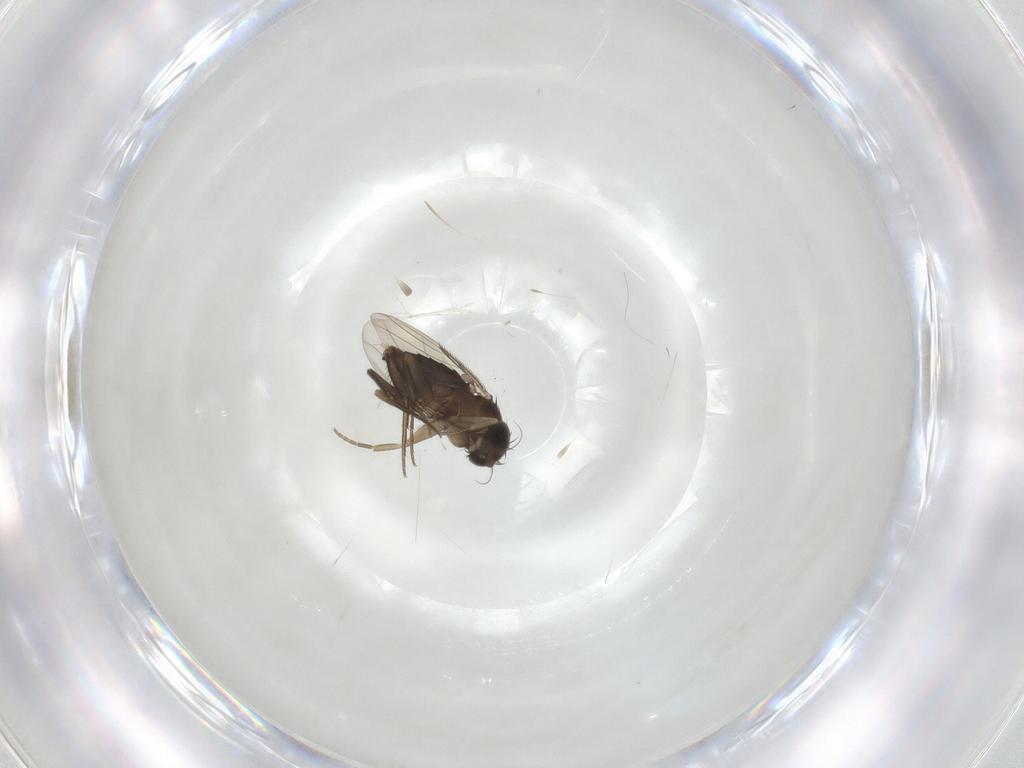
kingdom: Animalia
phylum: Arthropoda
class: Insecta
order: Diptera
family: Phoridae
